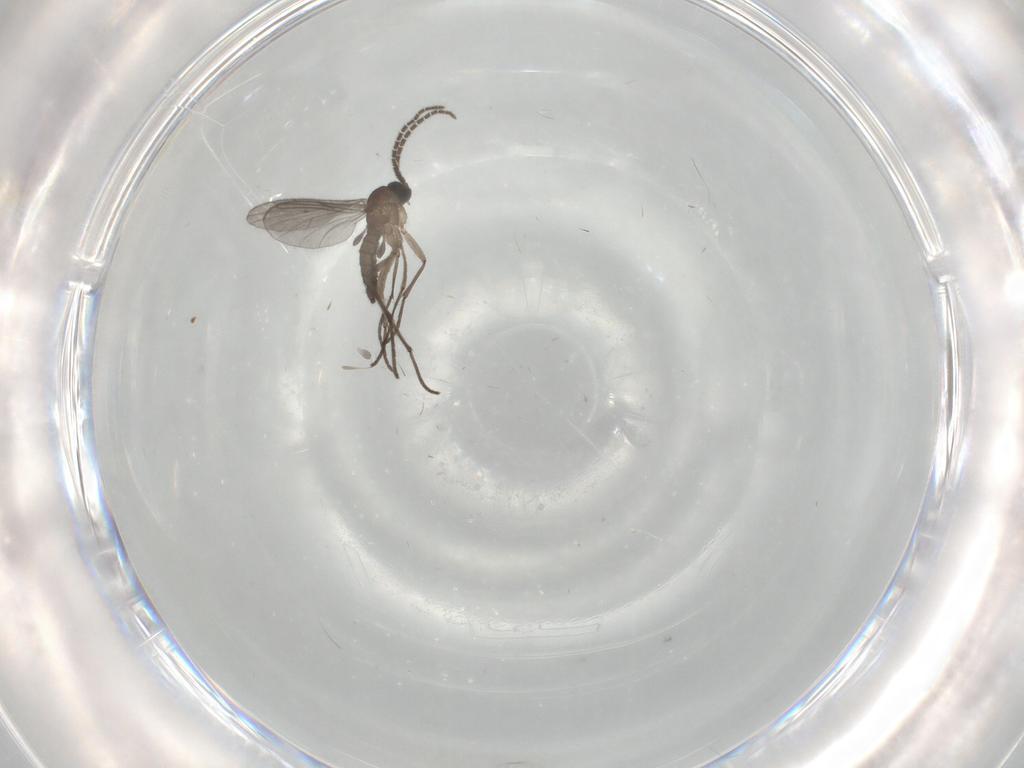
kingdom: Animalia
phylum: Arthropoda
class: Insecta
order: Diptera
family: Sciaridae
